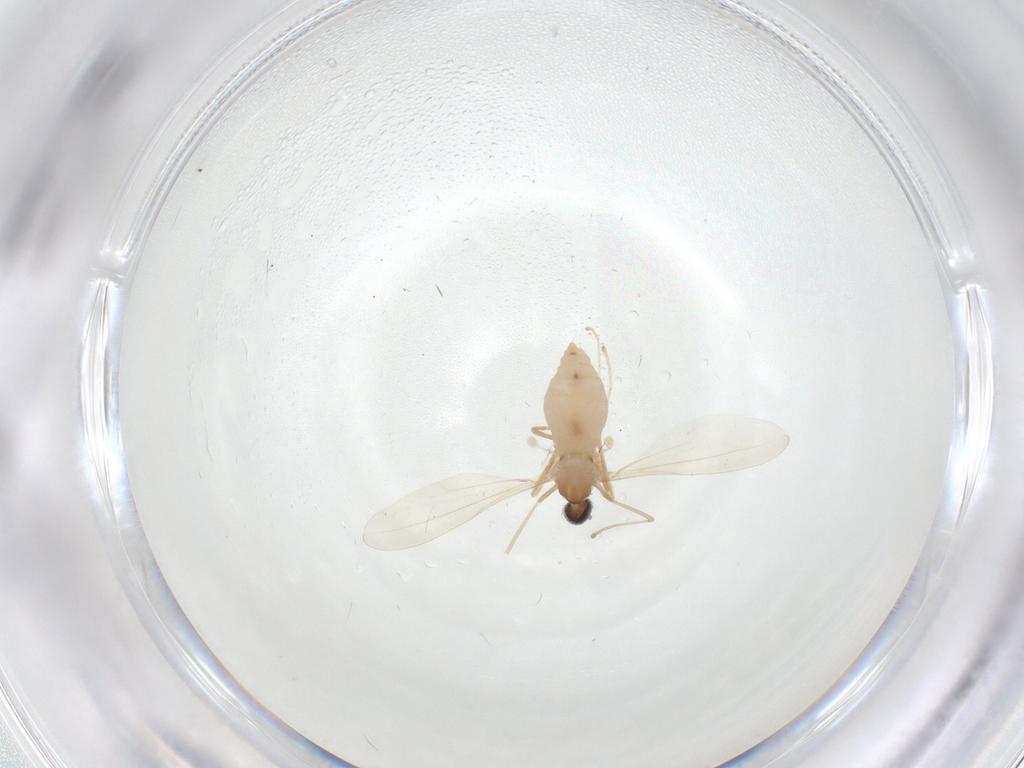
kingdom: Animalia
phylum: Arthropoda
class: Insecta
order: Diptera
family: Cecidomyiidae
